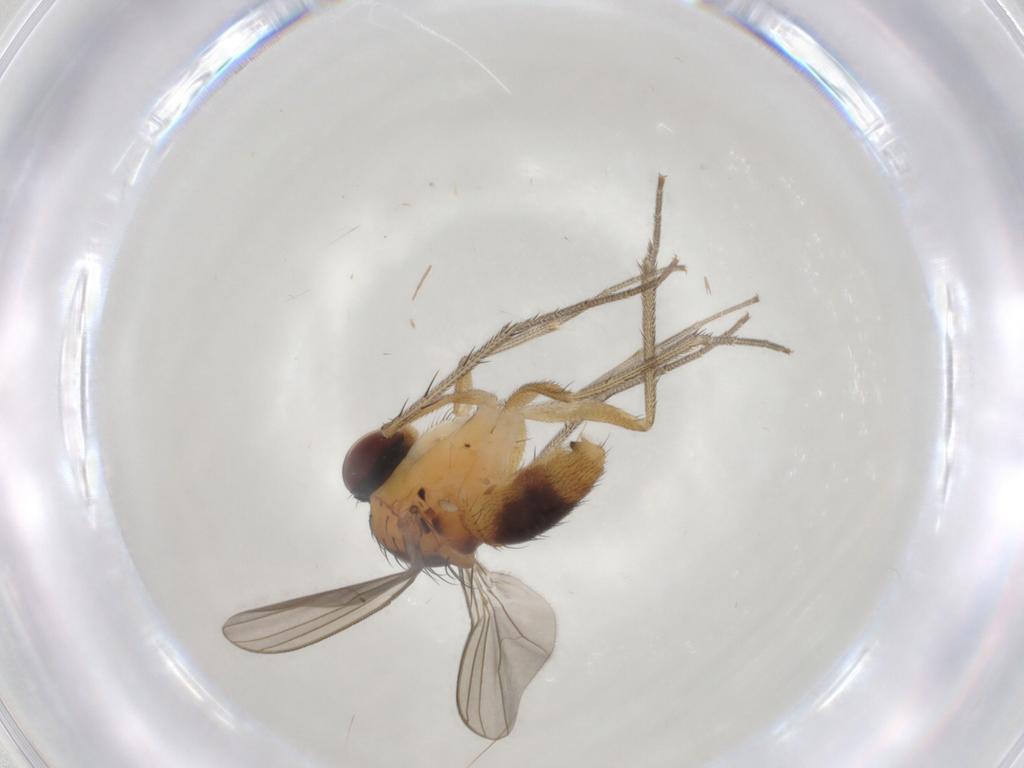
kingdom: Animalia
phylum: Arthropoda
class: Insecta
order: Diptera
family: Dolichopodidae
